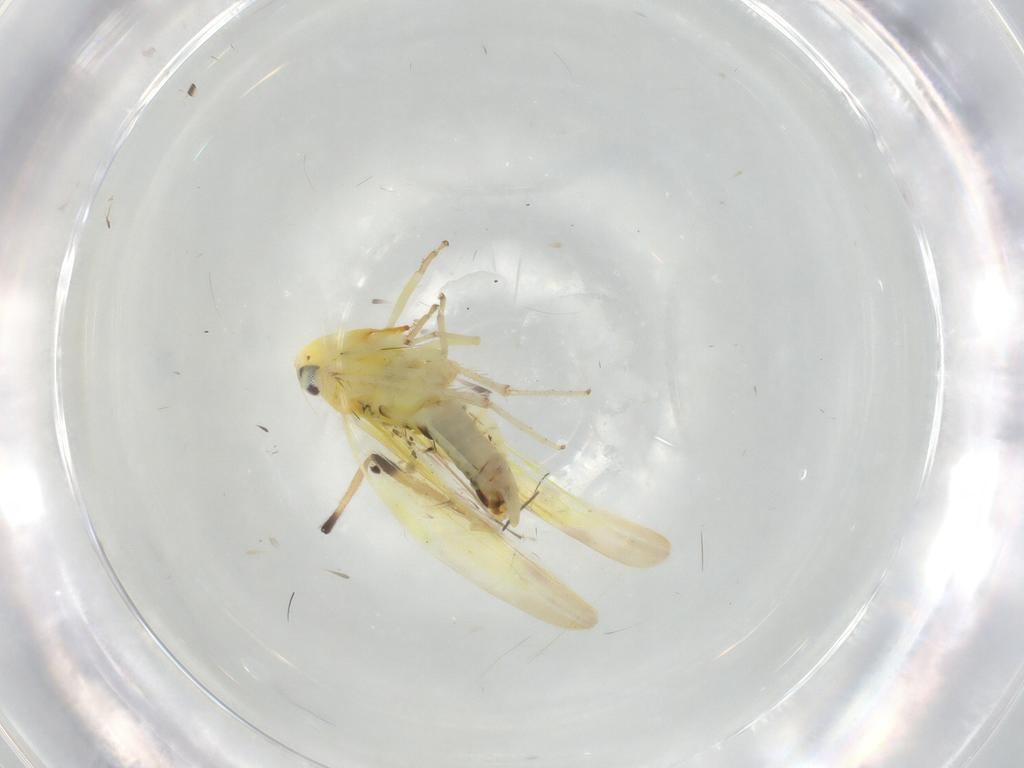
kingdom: Animalia
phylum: Arthropoda
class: Insecta
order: Hemiptera
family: Cicadellidae
